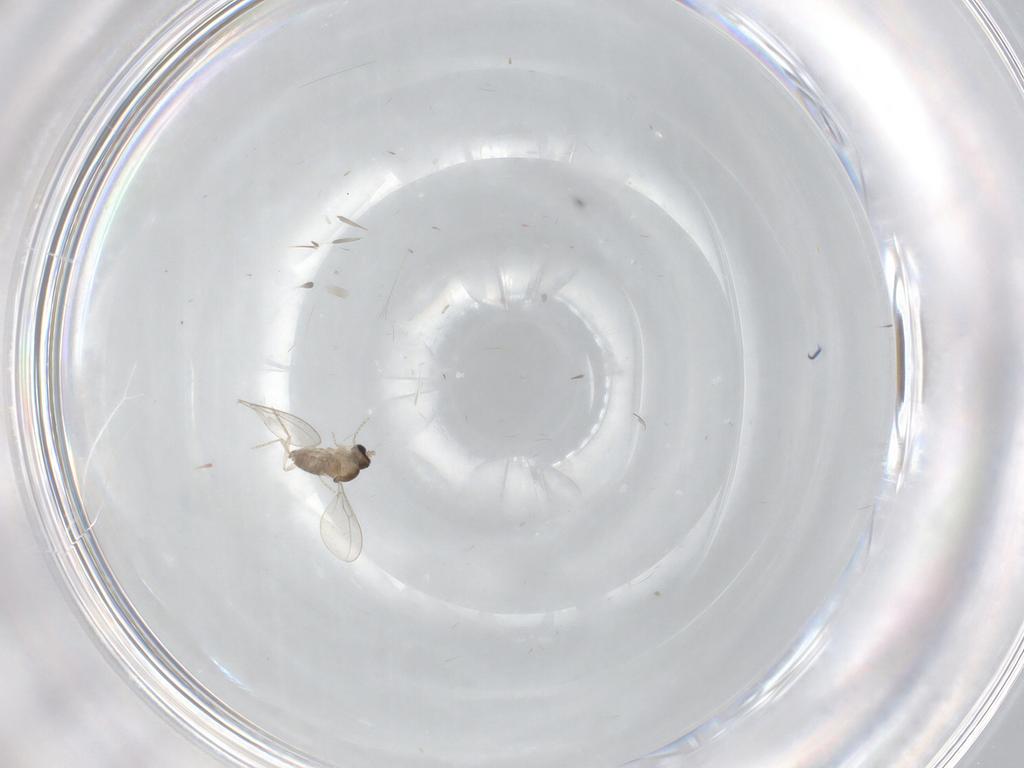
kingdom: Animalia
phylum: Arthropoda
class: Insecta
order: Diptera
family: Cecidomyiidae
